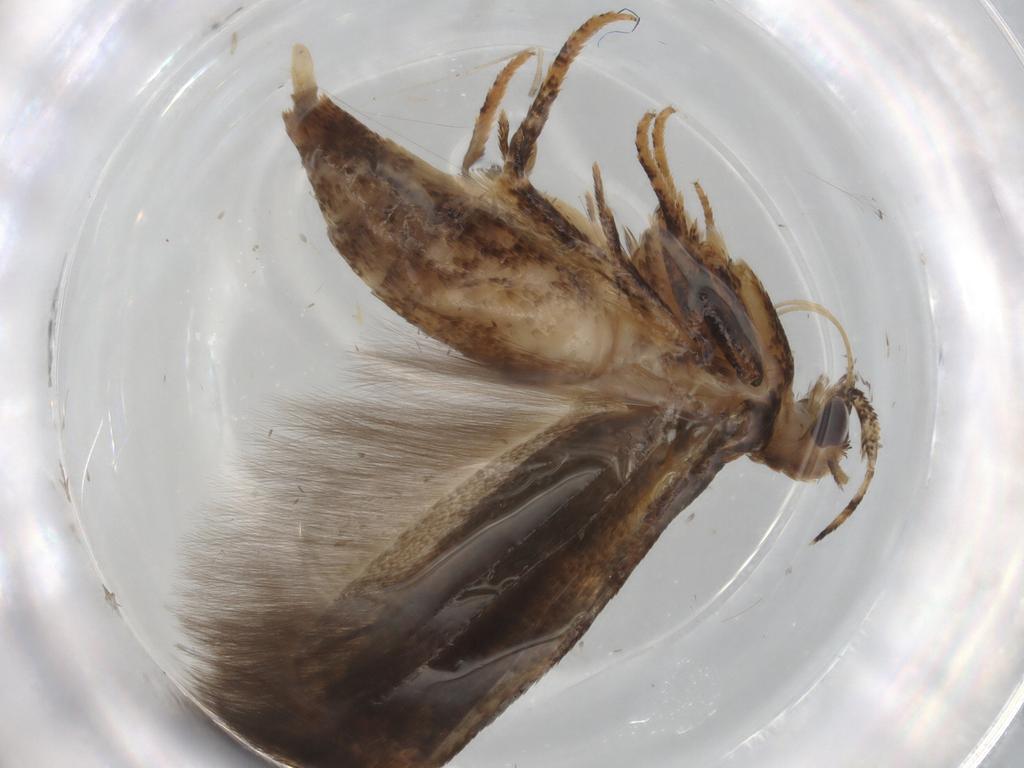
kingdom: Animalia
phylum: Arthropoda
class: Insecta
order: Lepidoptera
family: Gelechiidae
